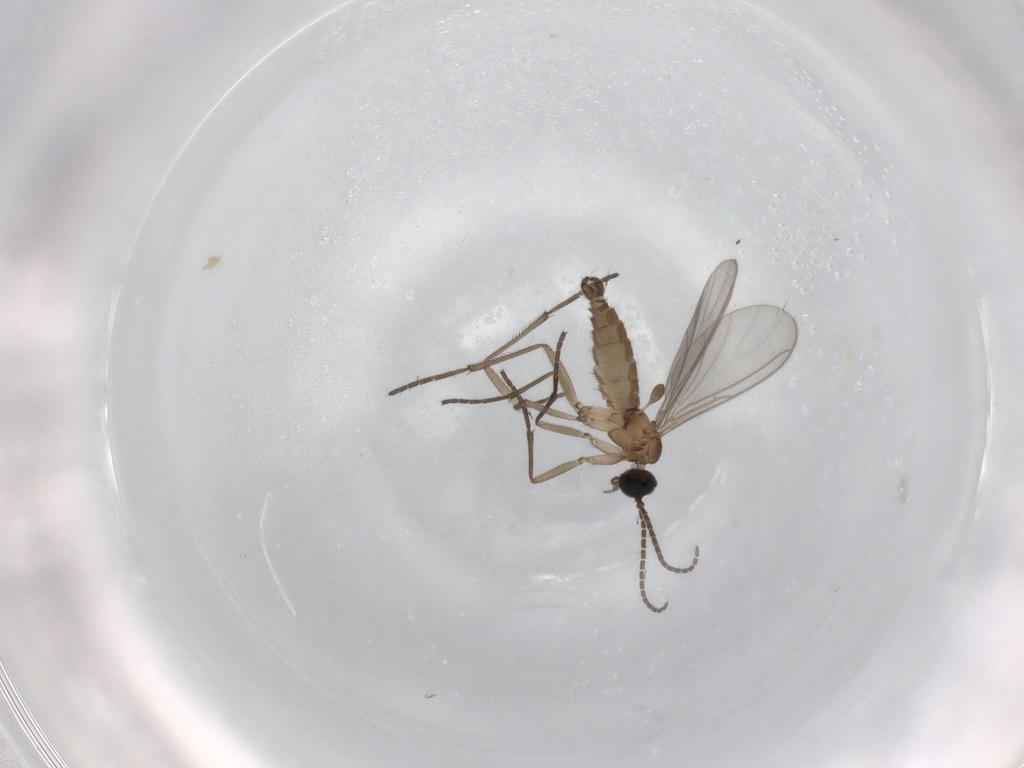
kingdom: Animalia
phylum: Arthropoda
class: Insecta
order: Diptera
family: Sciaridae
